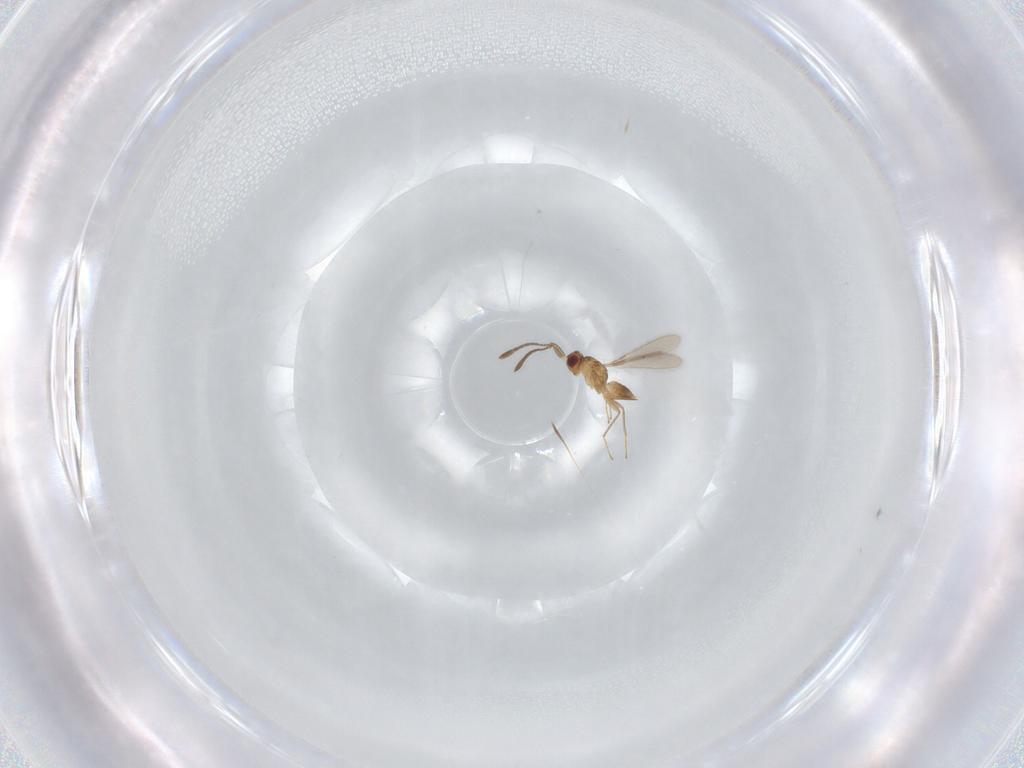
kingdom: Animalia
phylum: Arthropoda
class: Insecta
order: Hymenoptera
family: Mymaridae
